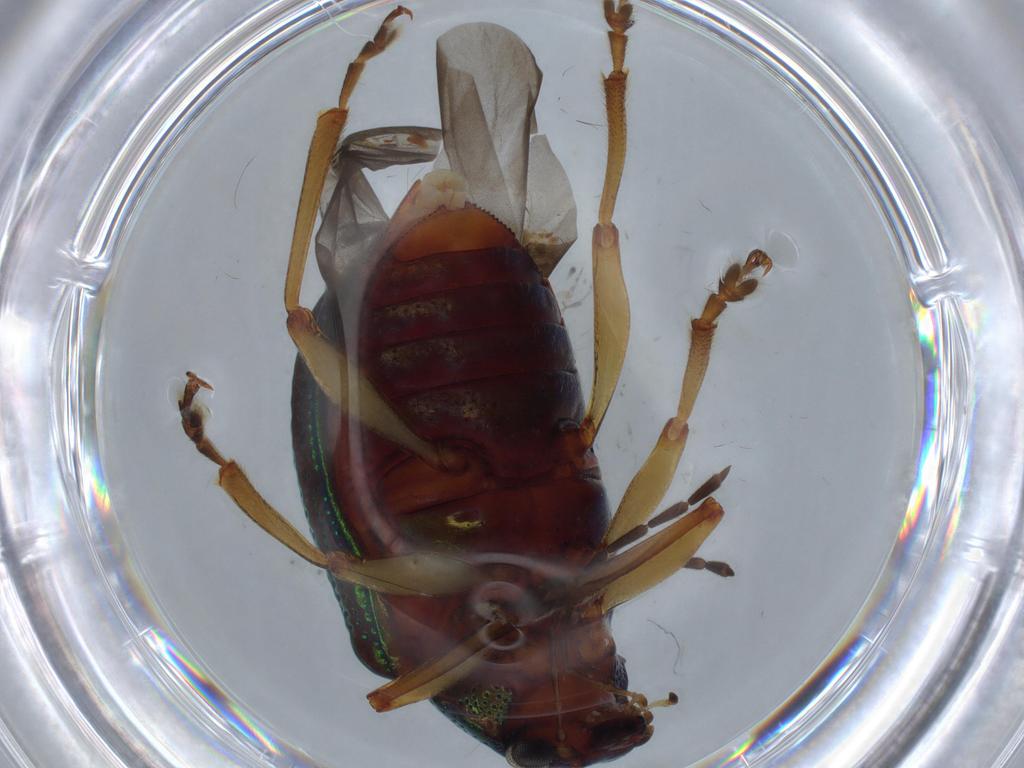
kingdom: Animalia
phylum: Arthropoda
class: Insecta
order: Coleoptera
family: Chrysomelidae
